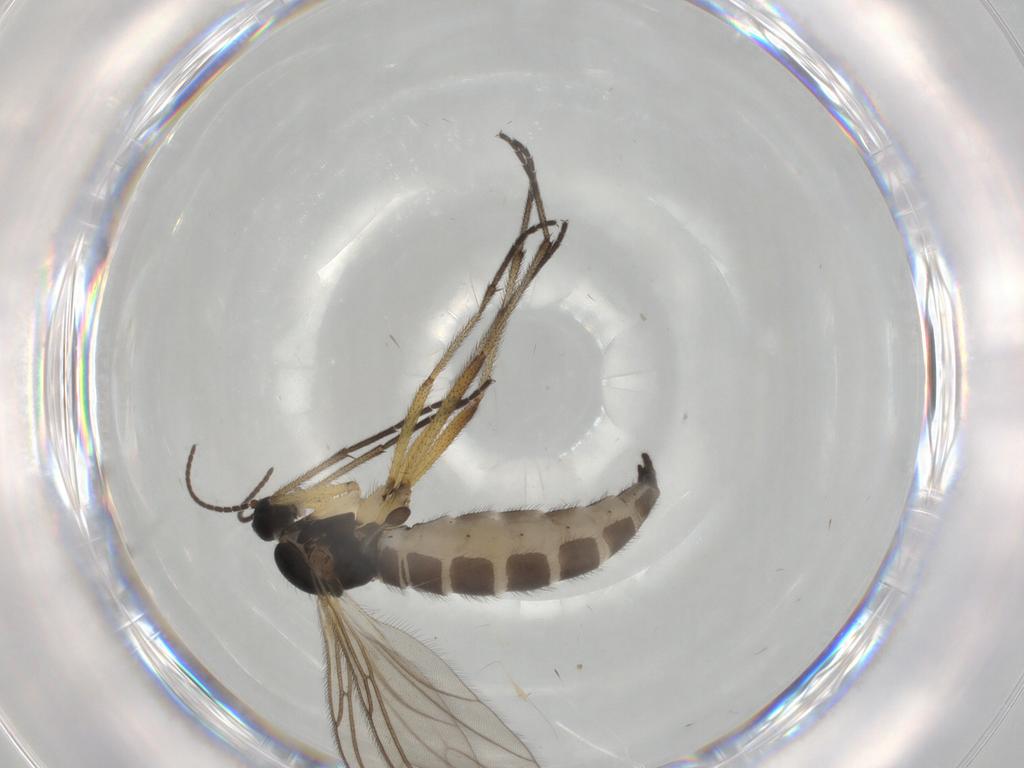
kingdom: Animalia
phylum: Arthropoda
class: Insecta
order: Diptera
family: Sciaridae
